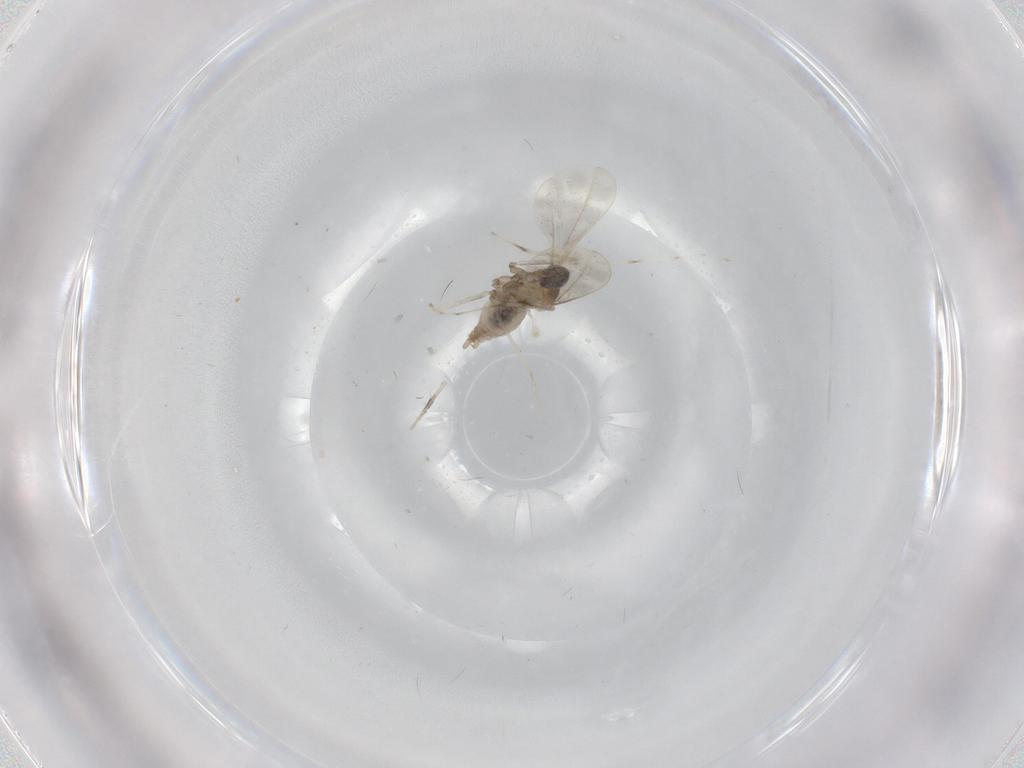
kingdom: Animalia
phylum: Arthropoda
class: Insecta
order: Diptera
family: Cecidomyiidae
